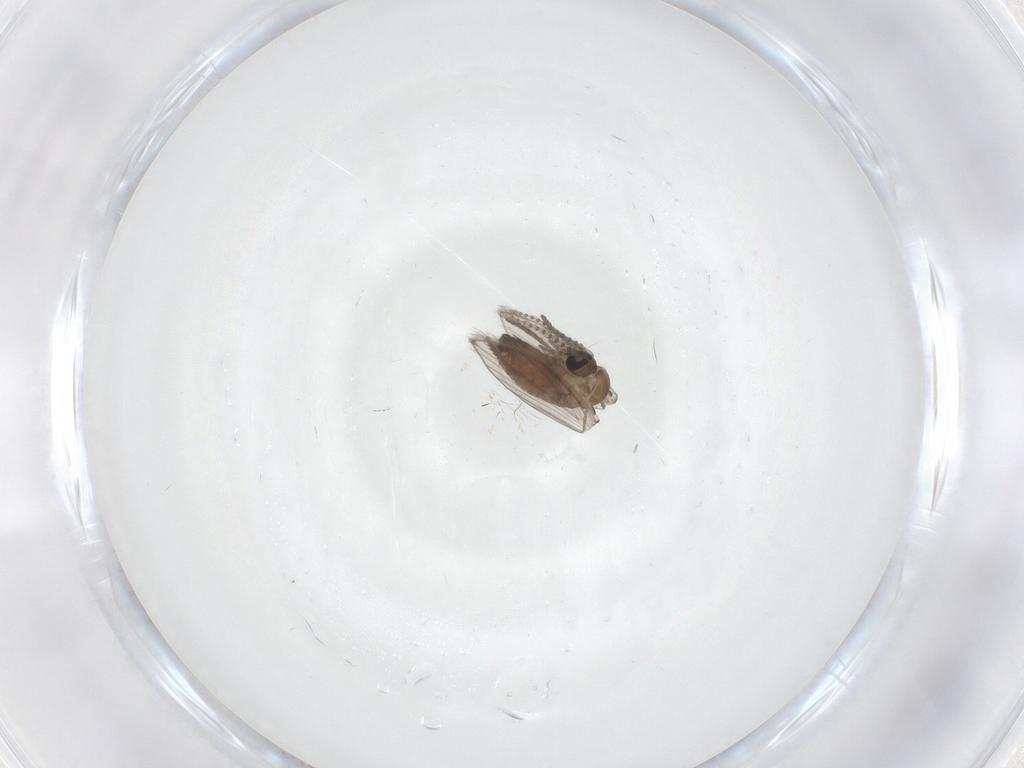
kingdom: Animalia
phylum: Arthropoda
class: Insecta
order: Diptera
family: Psychodidae
